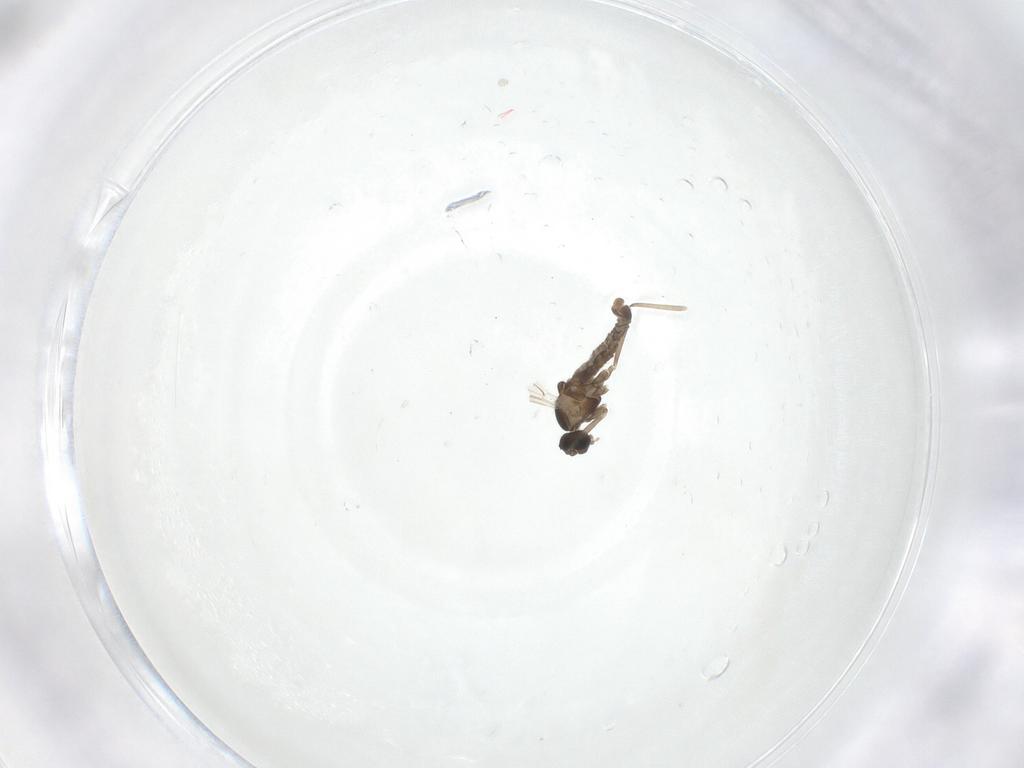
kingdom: Animalia
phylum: Arthropoda
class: Insecta
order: Diptera
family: Cecidomyiidae
